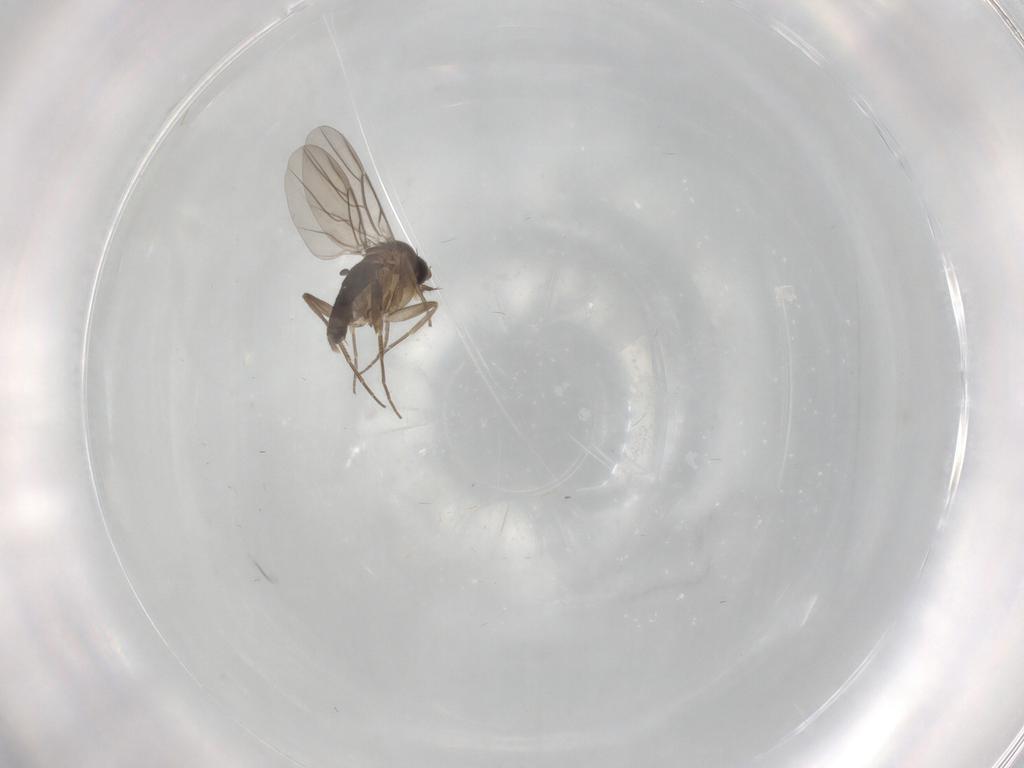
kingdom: Animalia
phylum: Arthropoda
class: Insecta
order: Diptera
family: Phoridae
